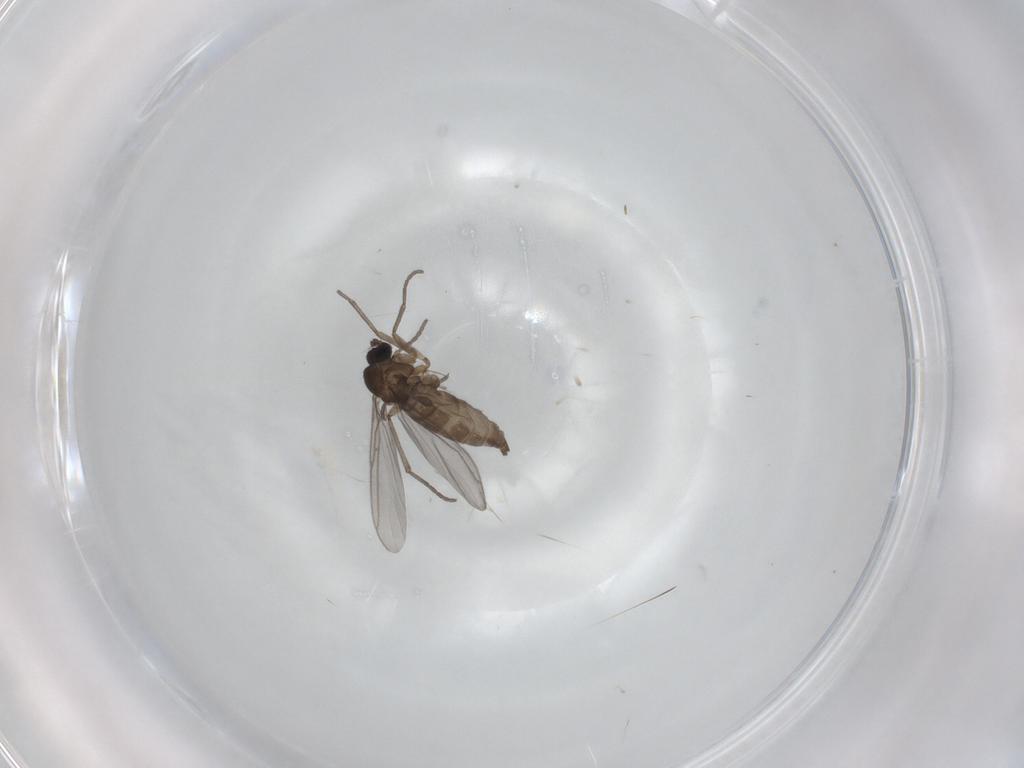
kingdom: Animalia
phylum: Arthropoda
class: Insecta
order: Diptera
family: Cecidomyiidae
